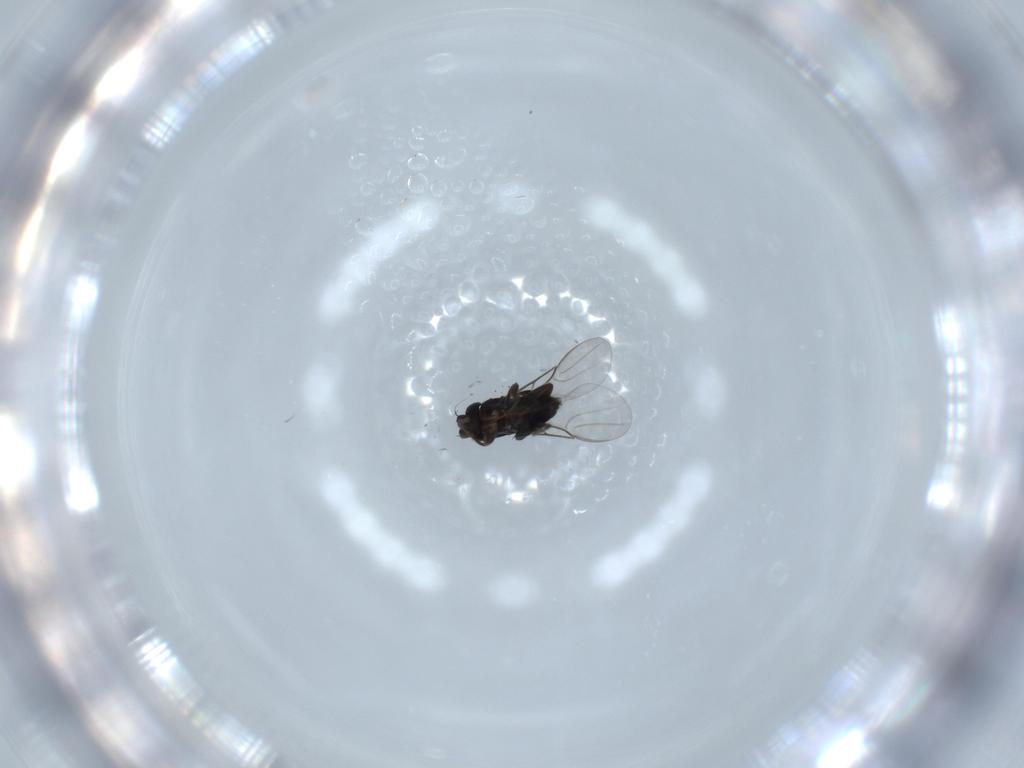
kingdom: Animalia
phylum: Arthropoda
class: Insecta
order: Diptera
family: Phoridae
